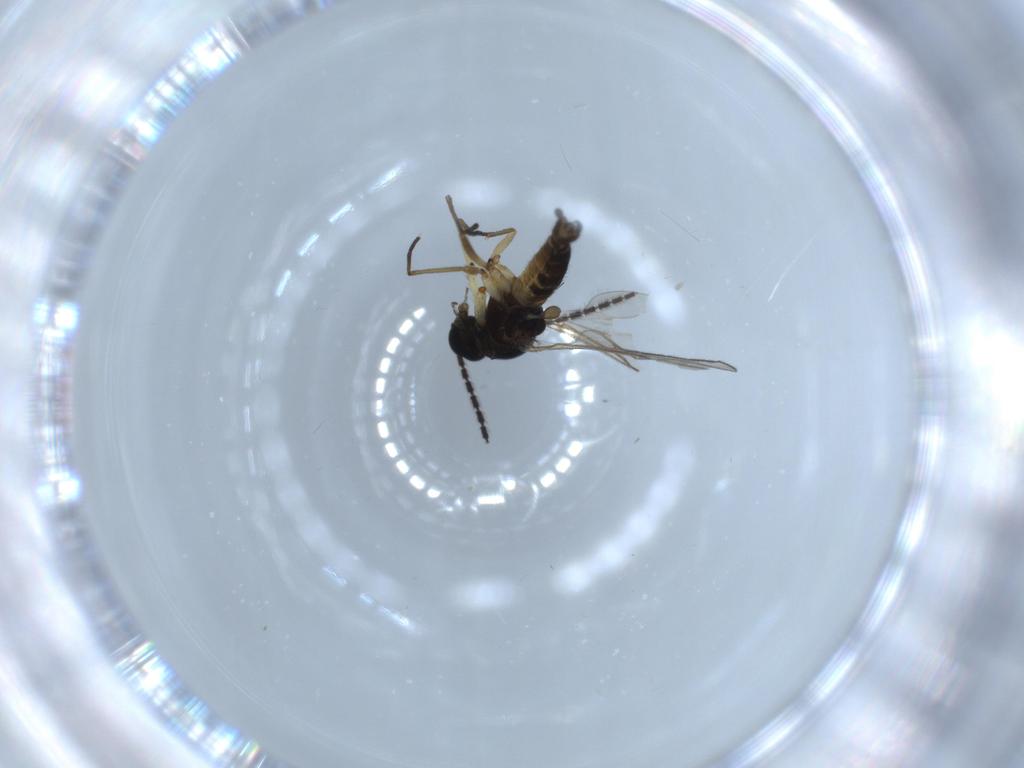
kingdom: Animalia
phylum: Arthropoda
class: Insecta
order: Diptera
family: Sciaridae
